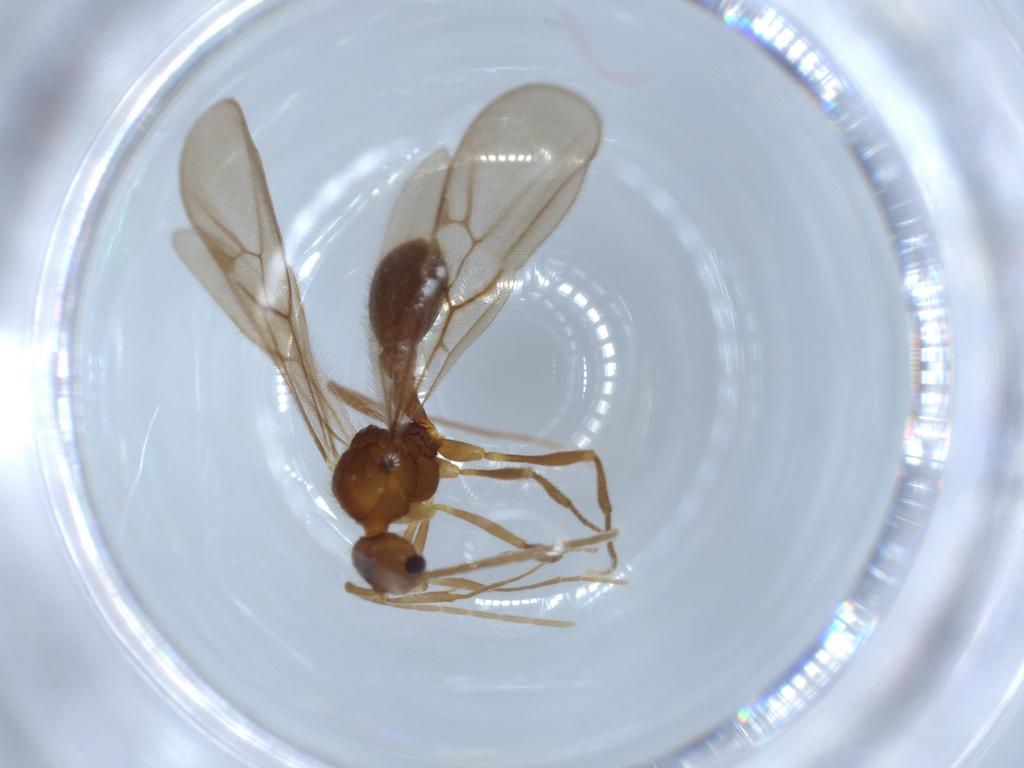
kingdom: Animalia
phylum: Arthropoda
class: Insecta
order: Hymenoptera
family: Formicidae
